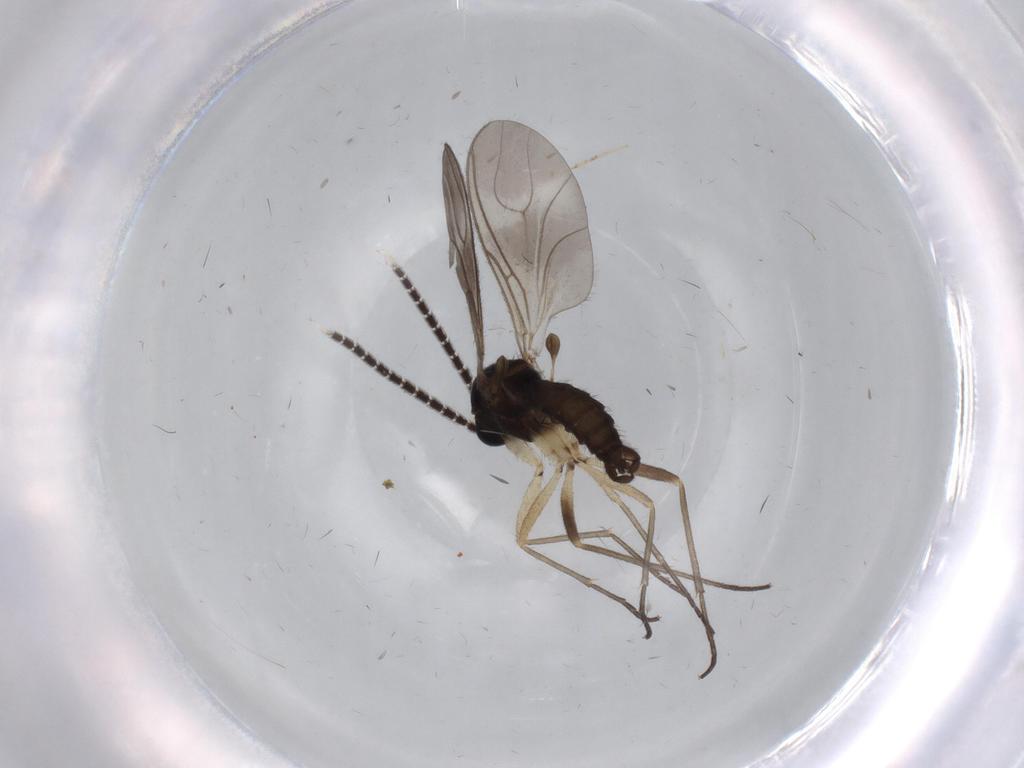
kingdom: Animalia
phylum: Arthropoda
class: Insecta
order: Diptera
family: Sciaridae
